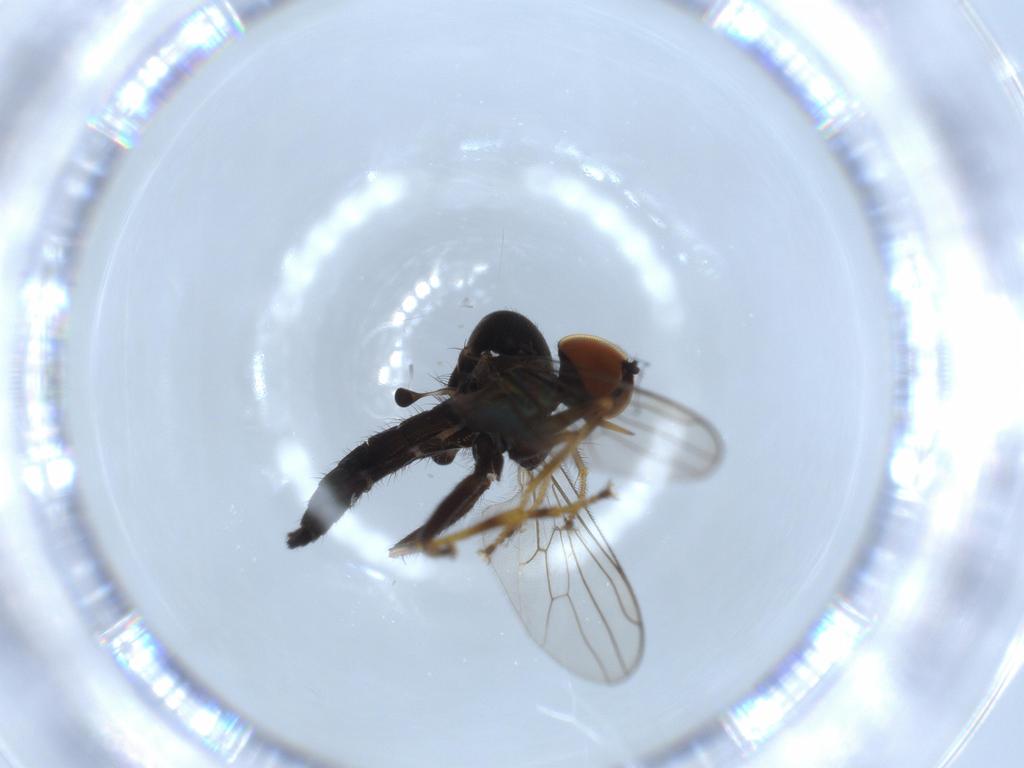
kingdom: Animalia
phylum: Arthropoda
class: Insecta
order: Diptera
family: Hybotidae
